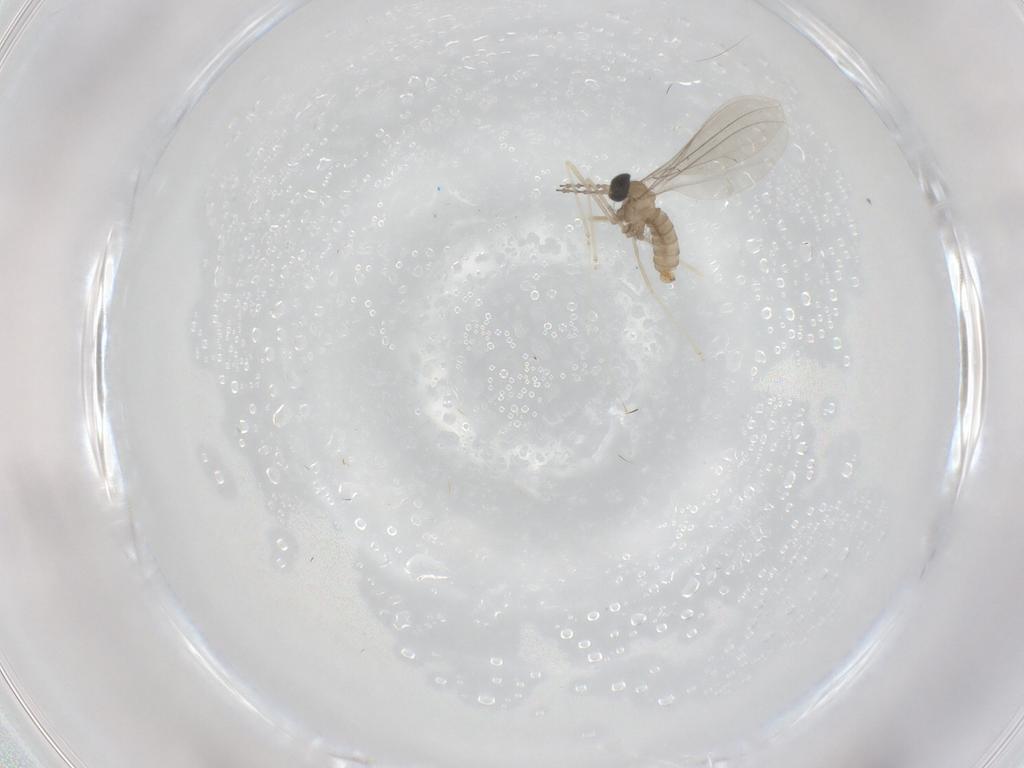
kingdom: Animalia
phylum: Arthropoda
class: Insecta
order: Diptera
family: Cecidomyiidae
